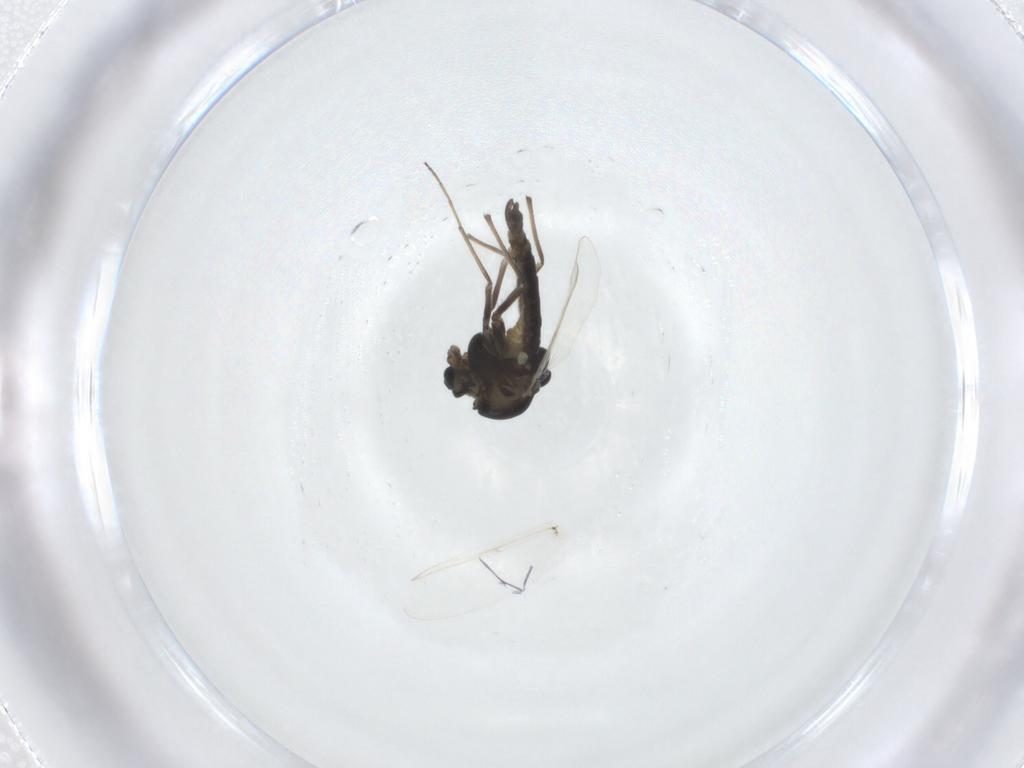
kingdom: Animalia
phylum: Arthropoda
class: Insecta
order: Diptera
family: Chironomidae
